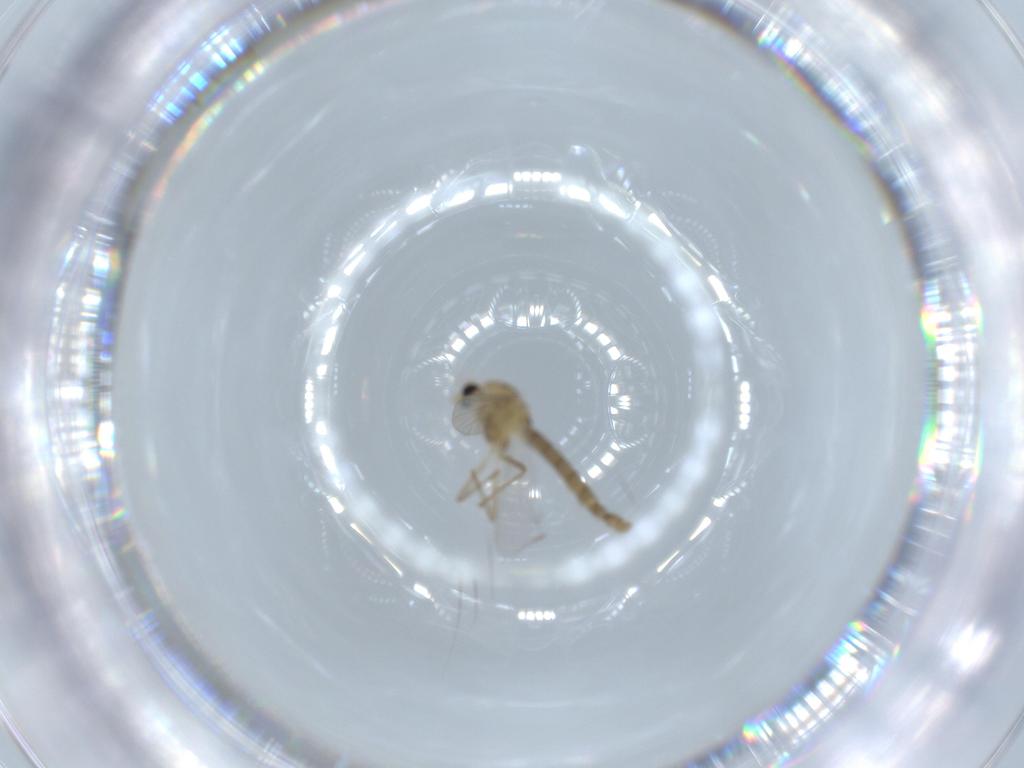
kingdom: Animalia
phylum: Arthropoda
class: Insecta
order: Diptera
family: Chironomidae
